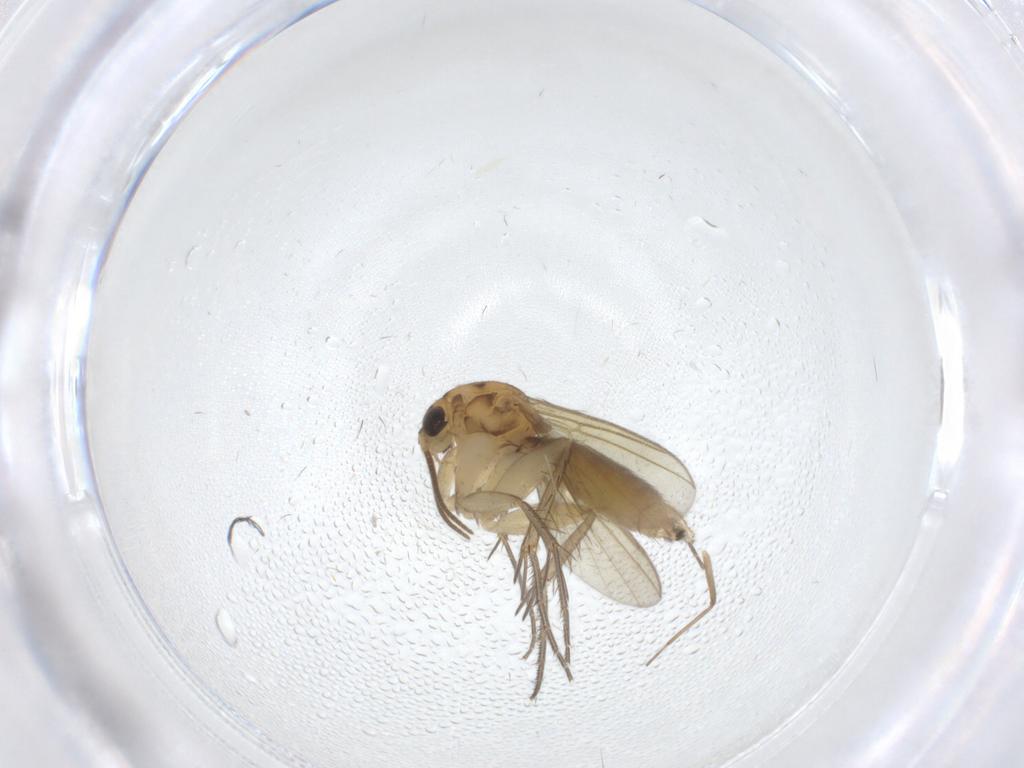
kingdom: Animalia
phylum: Arthropoda
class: Insecta
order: Diptera
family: Mycetophilidae
